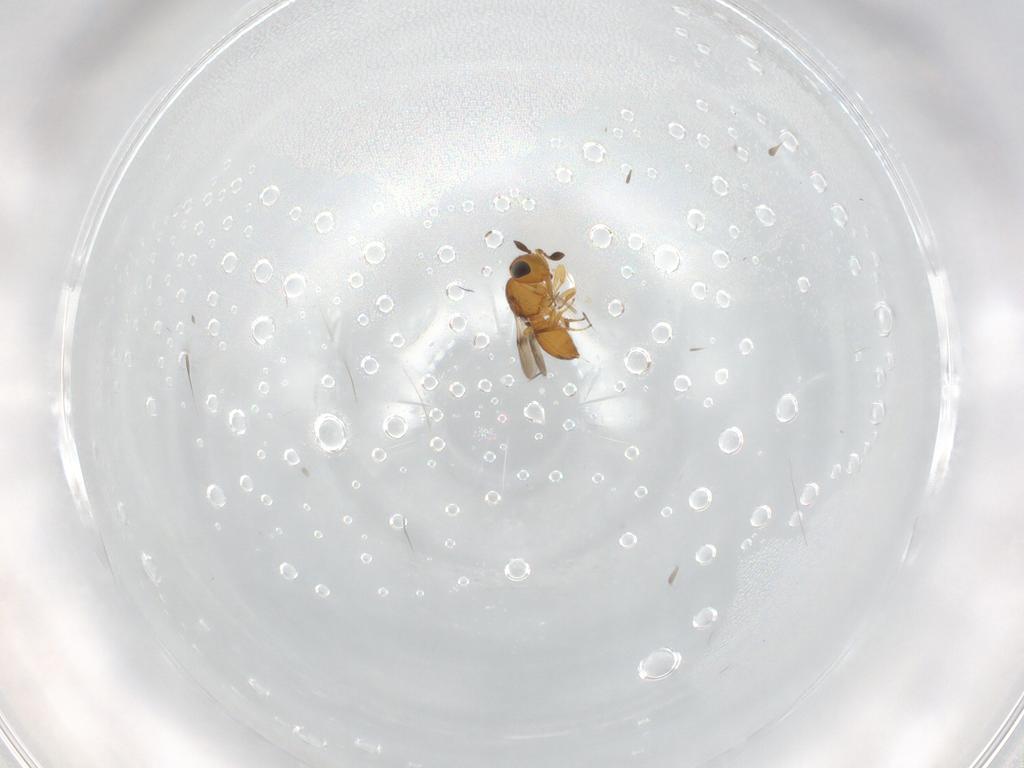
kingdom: Animalia
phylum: Arthropoda
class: Insecta
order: Hymenoptera
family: Scelionidae
